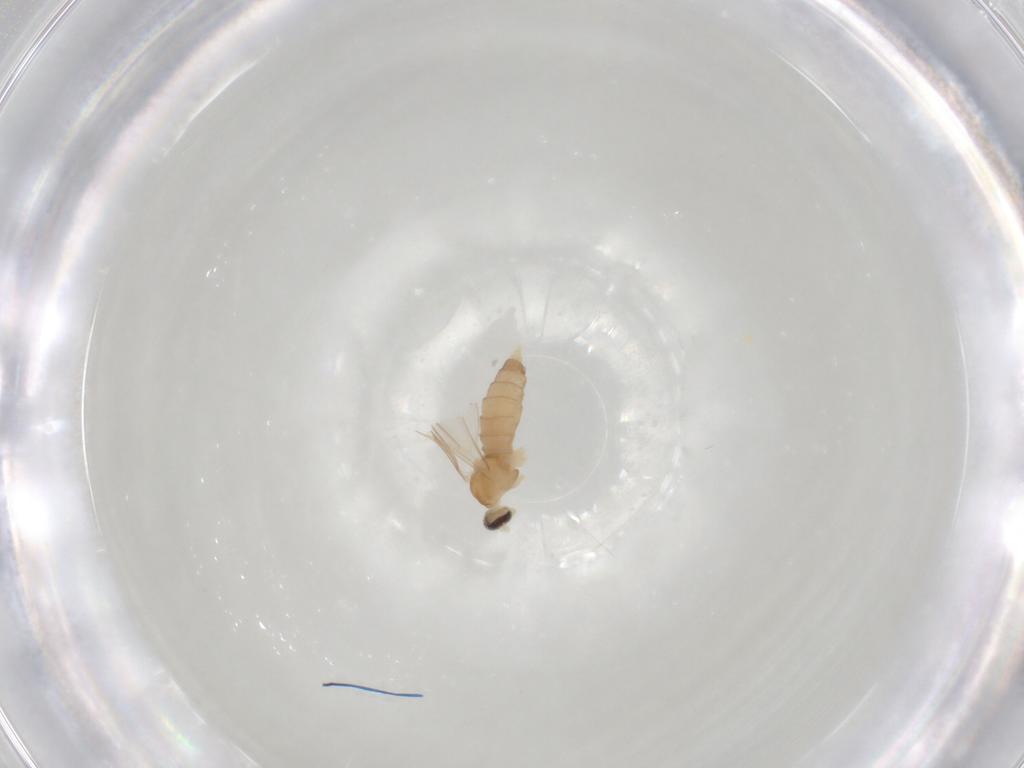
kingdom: Animalia
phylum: Arthropoda
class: Insecta
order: Diptera
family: Cecidomyiidae
